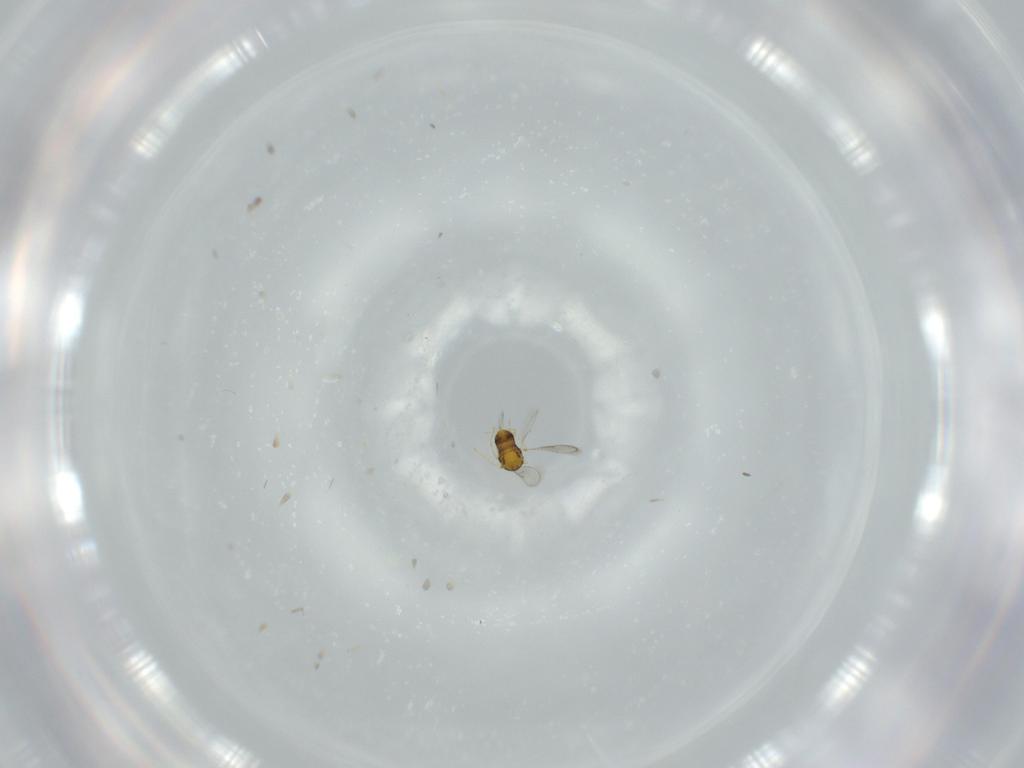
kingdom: Animalia
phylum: Arthropoda
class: Insecta
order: Hymenoptera
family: Aphelinidae
